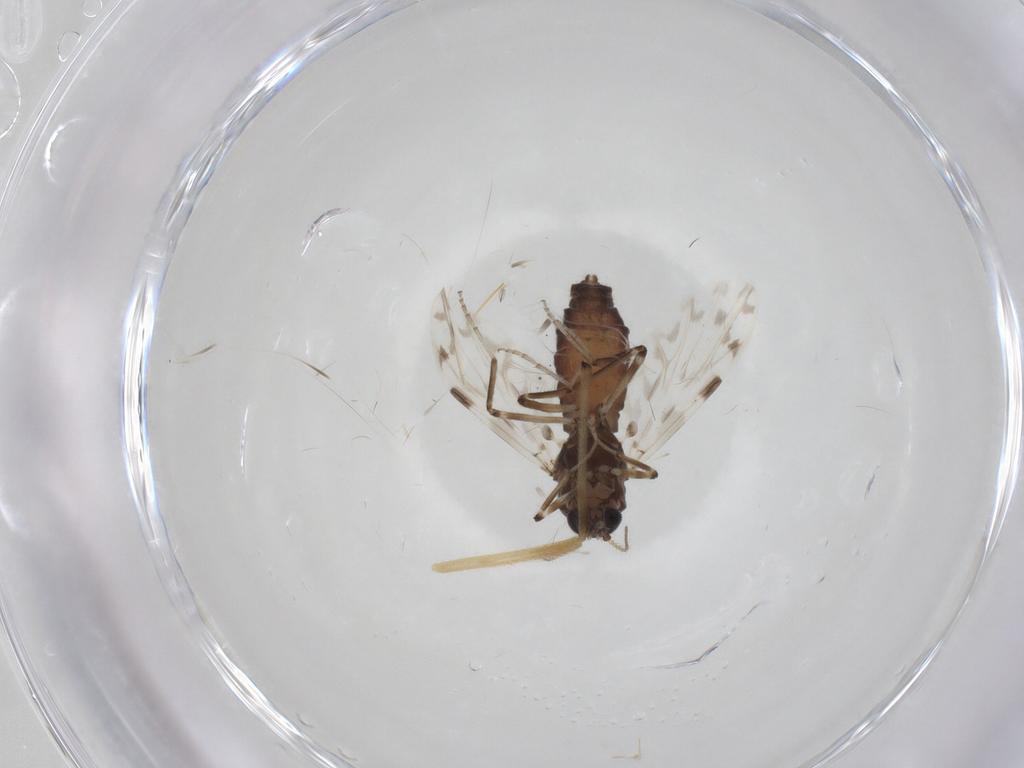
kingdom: Animalia
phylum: Arthropoda
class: Insecta
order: Diptera
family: Ceratopogonidae
